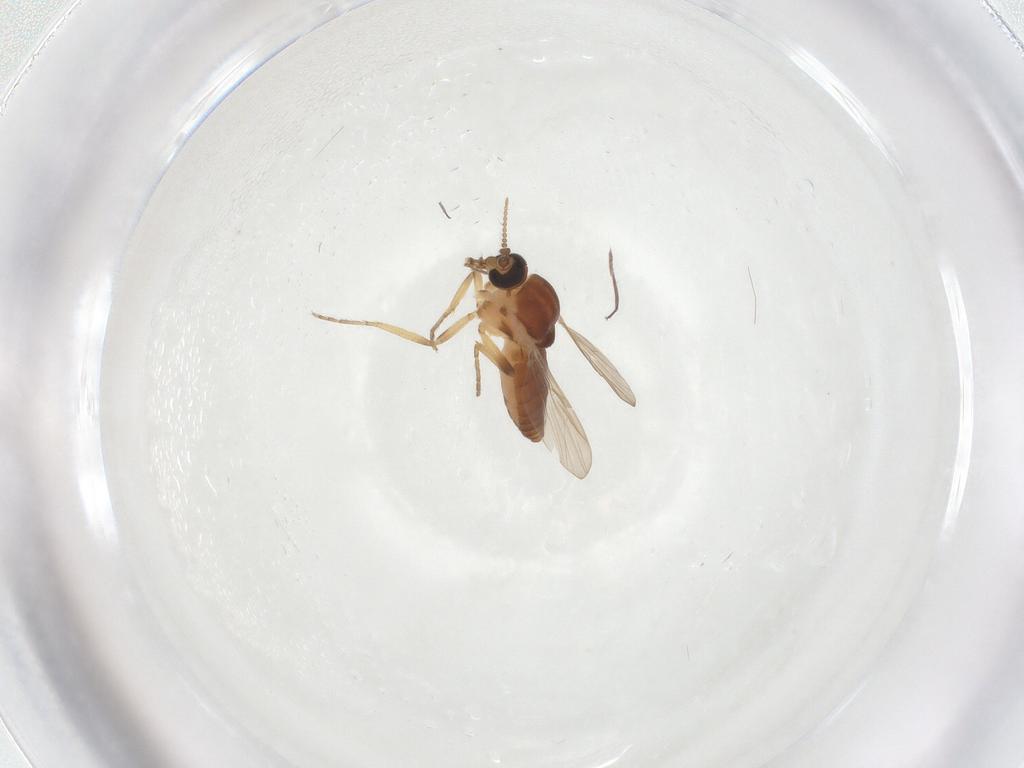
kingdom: Animalia
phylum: Arthropoda
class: Insecta
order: Diptera
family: Ceratopogonidae
